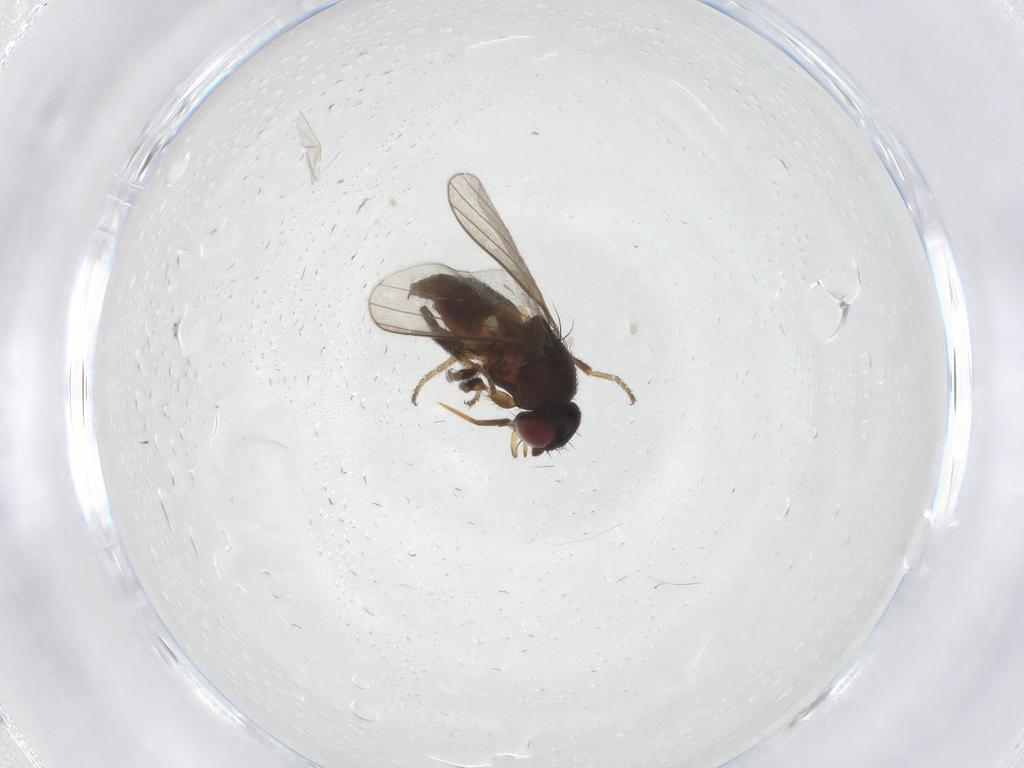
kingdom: Animalia
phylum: Arthropoda
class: Insecta
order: Diptera
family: Milichiidae
